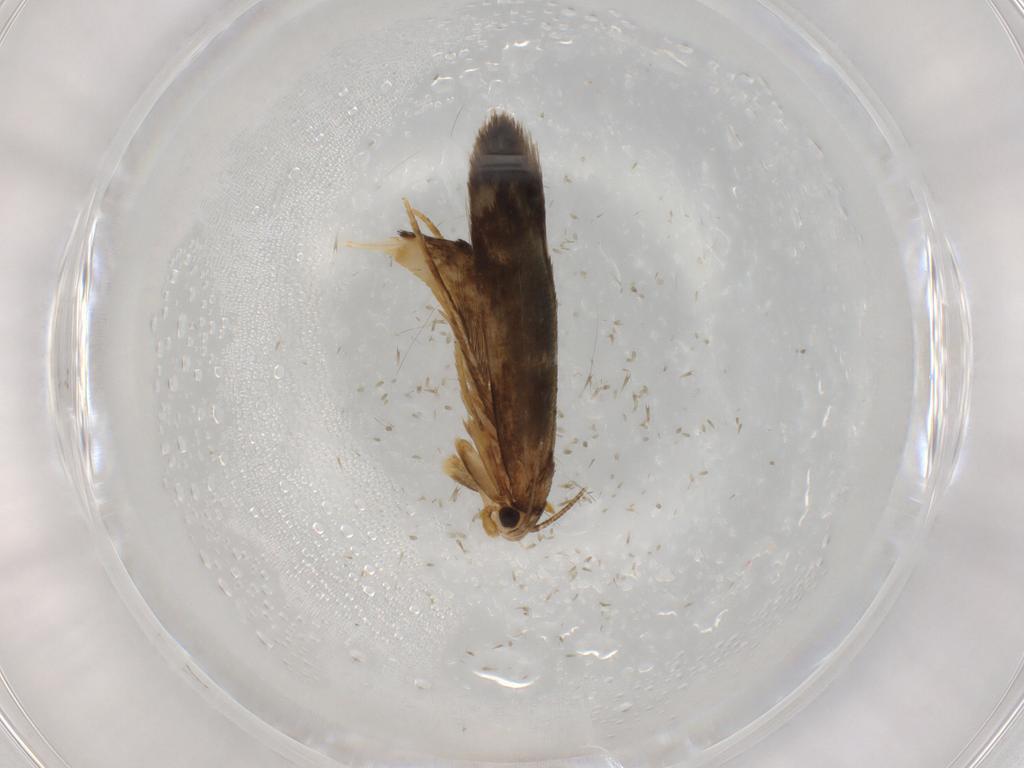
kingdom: Animalia
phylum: Arthropoda
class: Insecta
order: Lepidoptera
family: Tineidae
